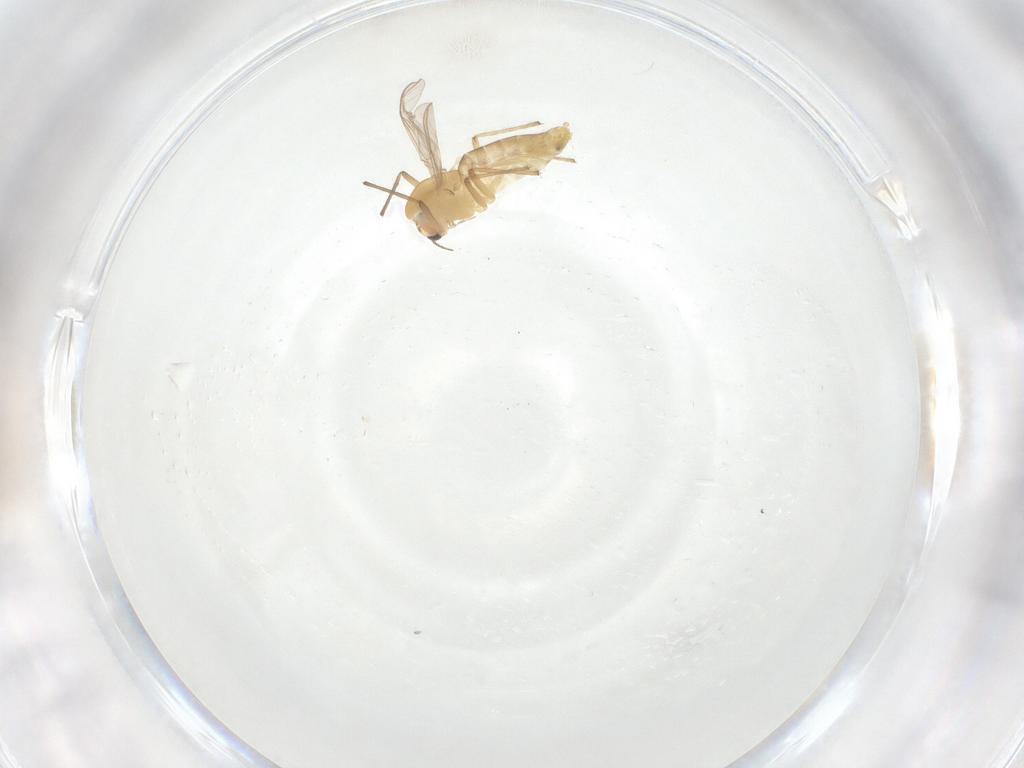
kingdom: Animalia
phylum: Arthropoda
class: Insecta
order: Diptera
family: Chironomidae
